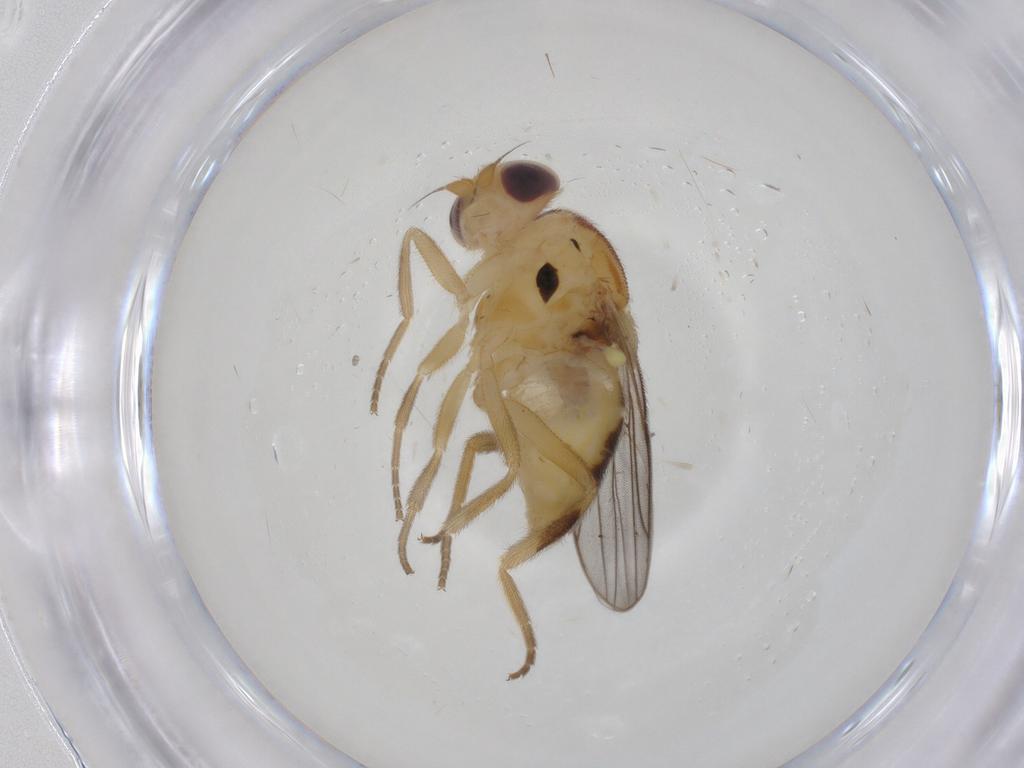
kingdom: Animalia
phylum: Arthropoda
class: Insecta
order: Diptera
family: Chloropidae
